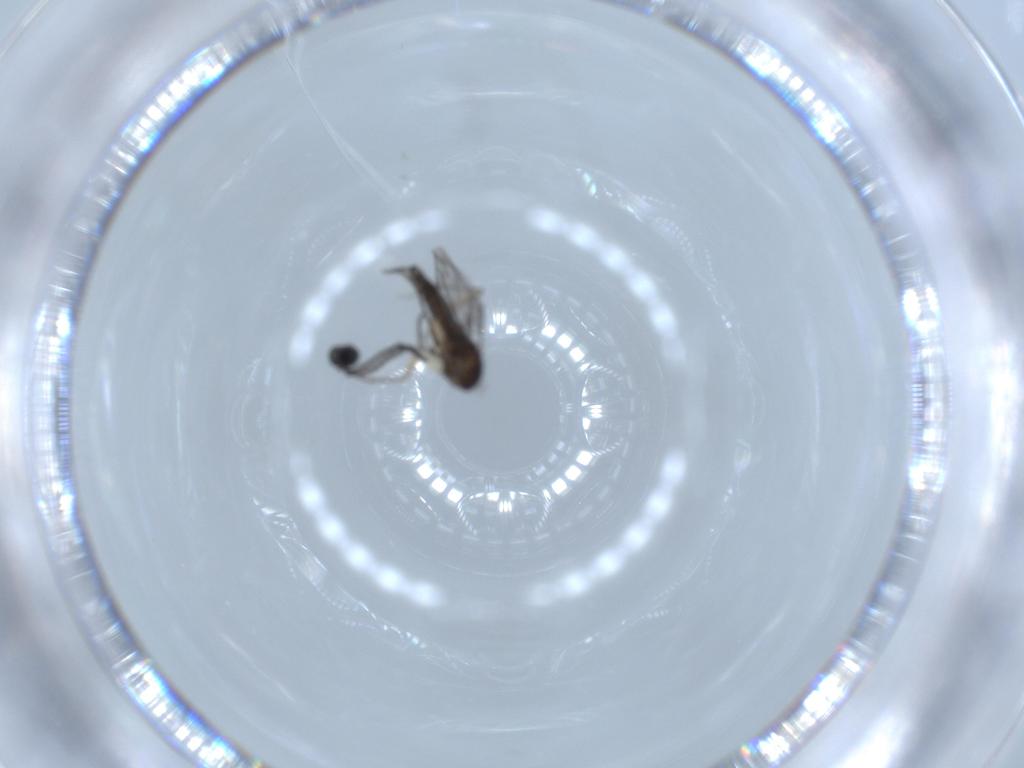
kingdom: Animalia
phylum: Arthropoda
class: Insecta
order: Diptera
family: Sciaridae
